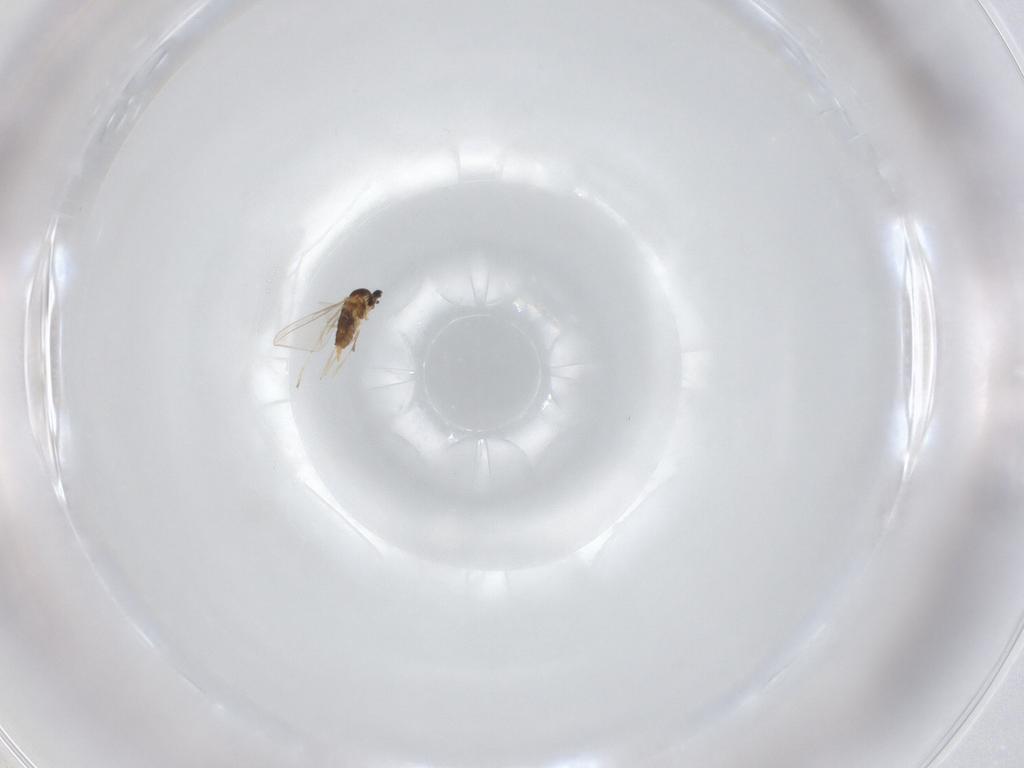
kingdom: Animalia
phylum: Arthropoda
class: Insecta
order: Diptera
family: Cecidomyiidae
